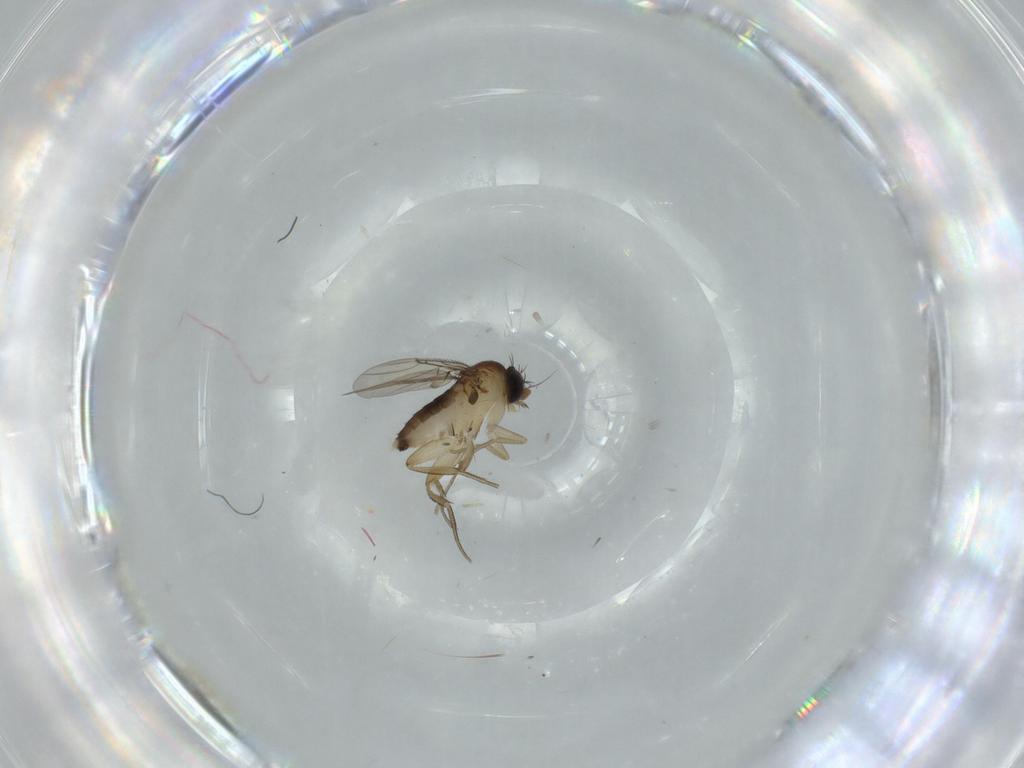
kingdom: Animalia
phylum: Arthropoda
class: Insecta
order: Diptera
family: Phoridae
